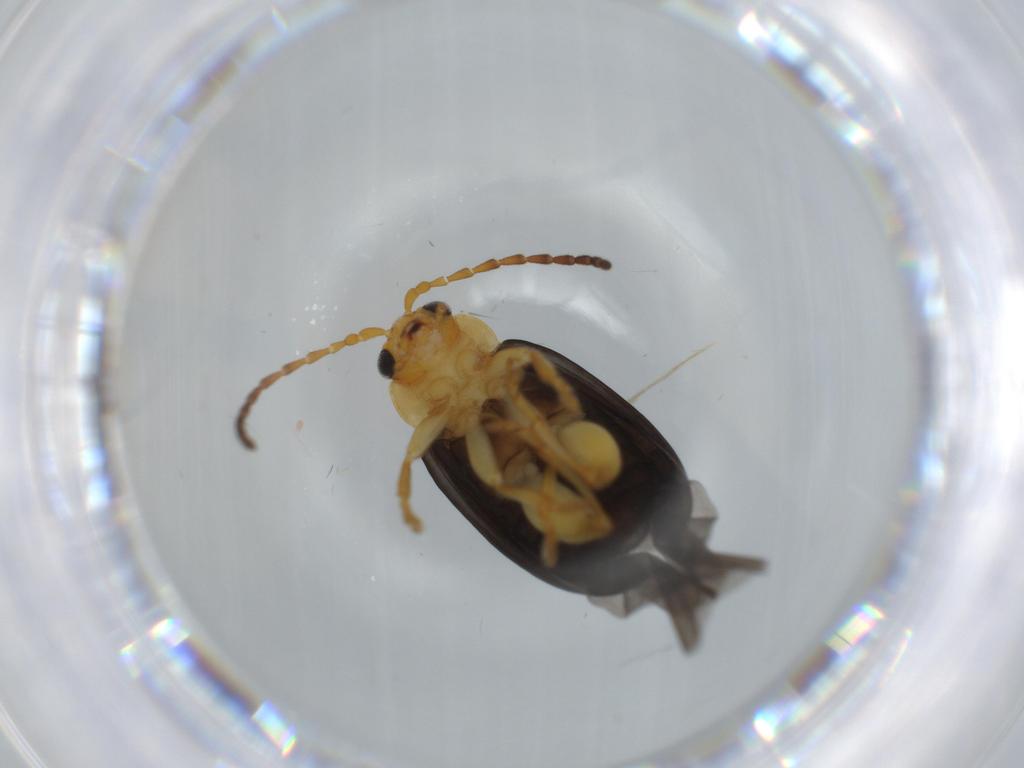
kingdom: Animalia
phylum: Arthropoda
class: Insecta
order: Coleoptera
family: Chrysomelidae
